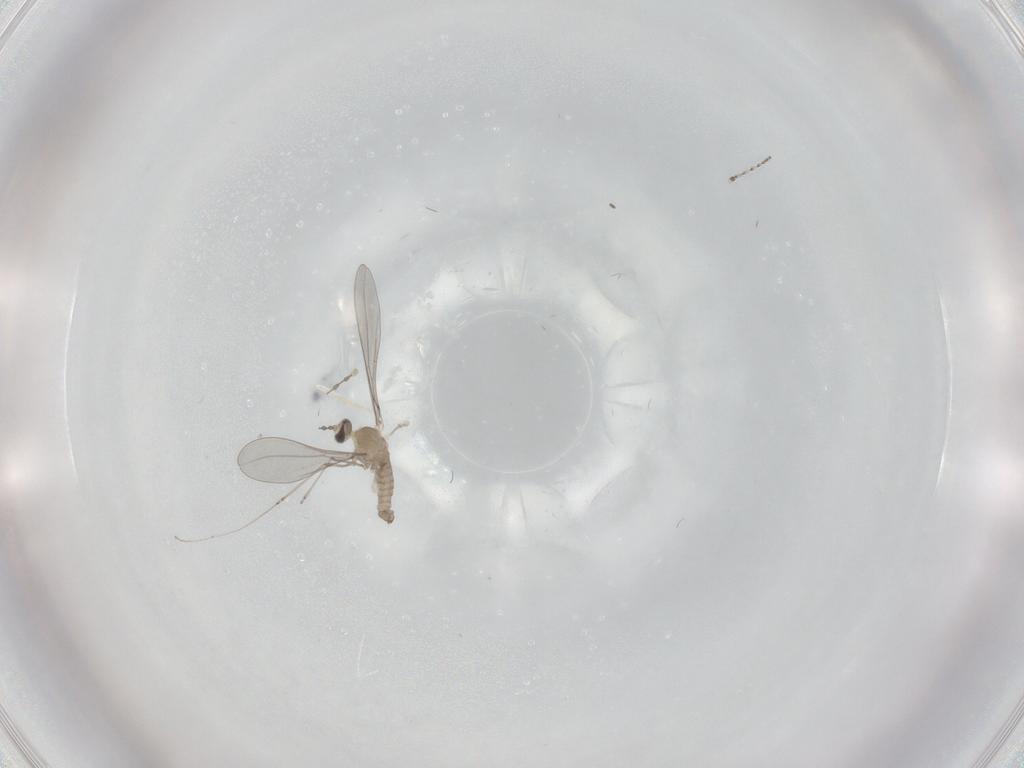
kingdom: Animalia
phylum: Arthropoda
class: Insecta
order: Diptera
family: Cecidomyiidae
